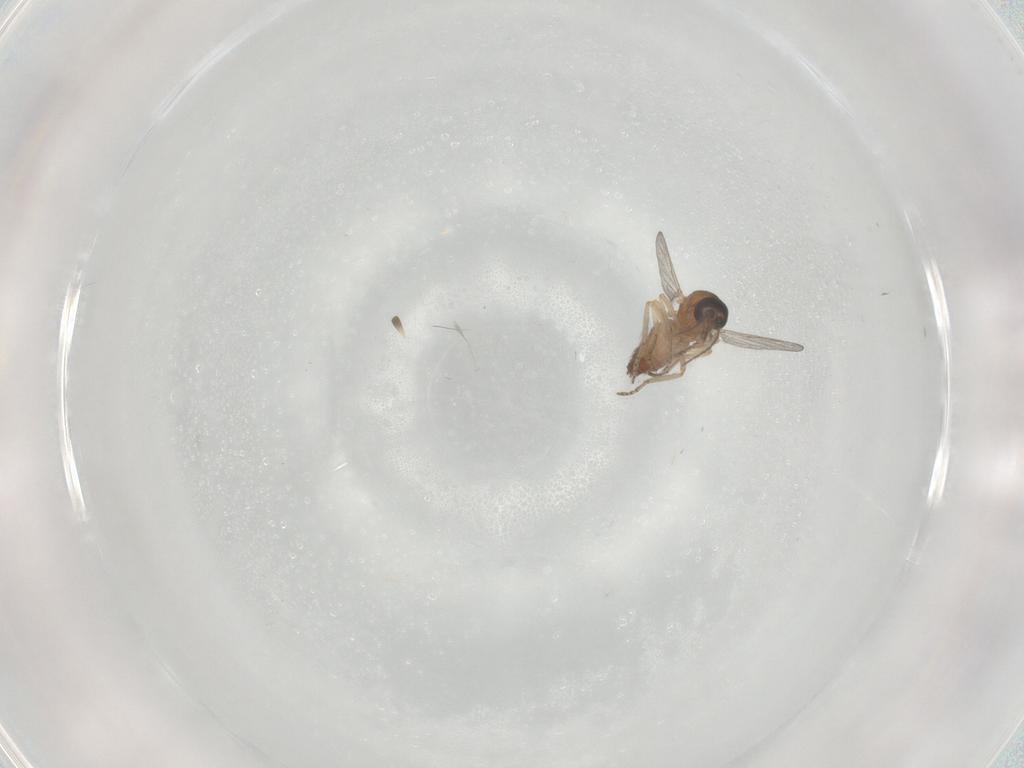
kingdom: Animalia
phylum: Arthropoda
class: Insecta
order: Diptera
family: Ceratopogonidae
